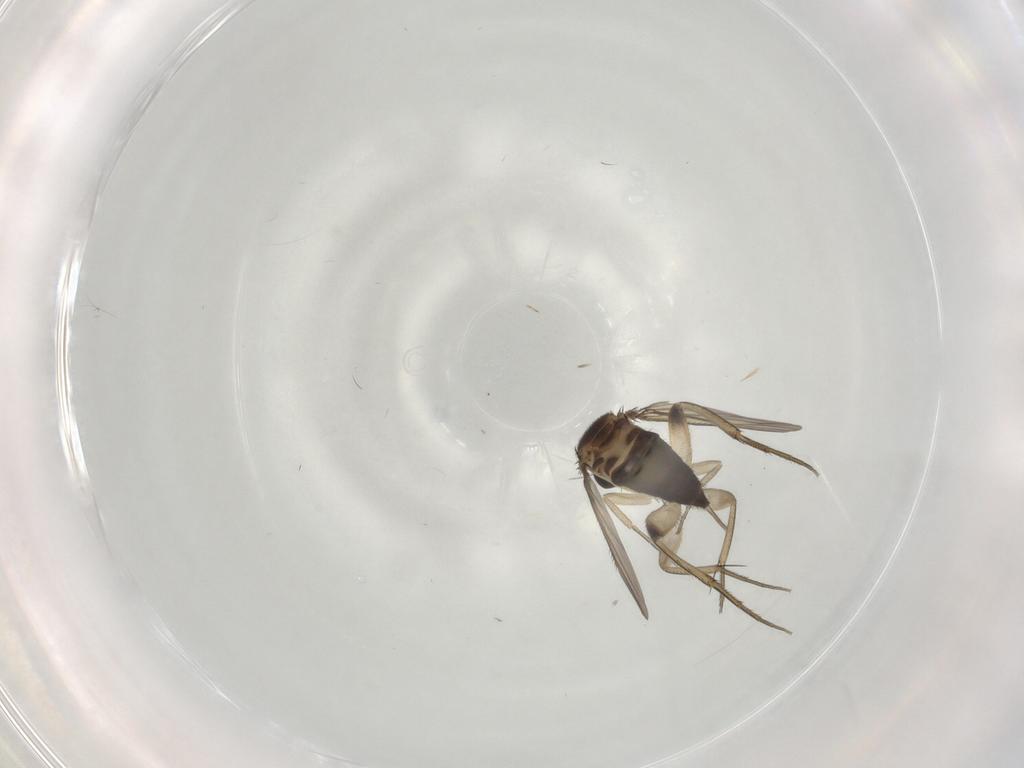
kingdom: Animalia
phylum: Arthropoda
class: Insecta
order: Diptera
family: Phoridae
